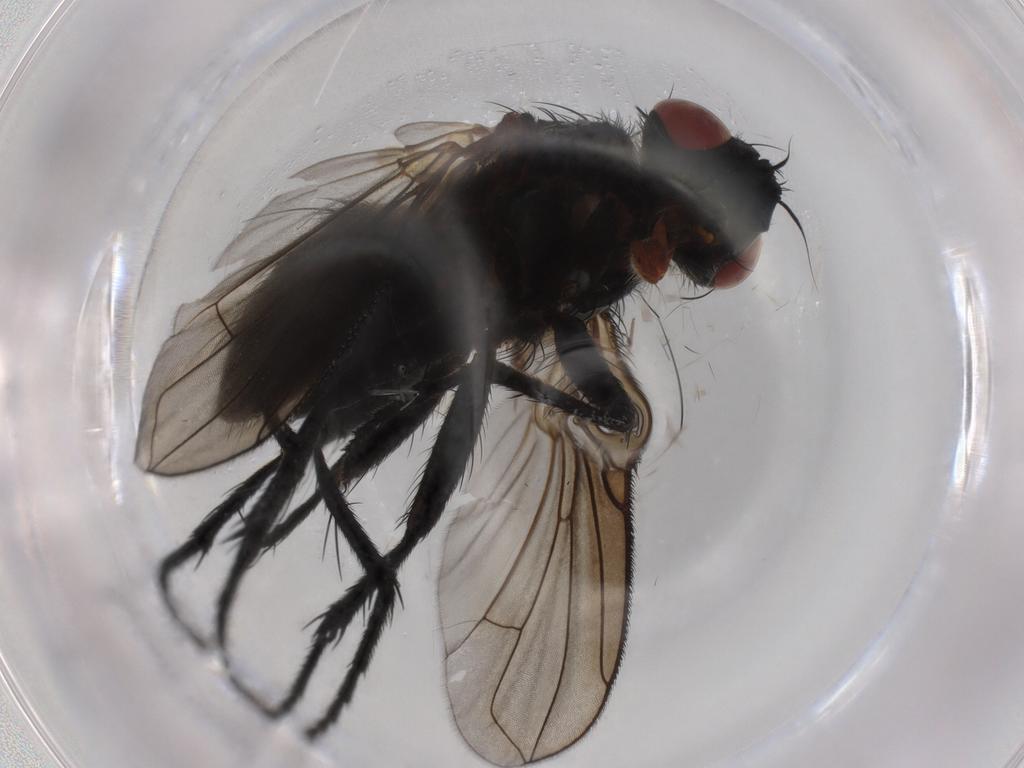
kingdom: Animalia
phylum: Arthropoda
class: Insecta
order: Diptera
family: Tachinidae
